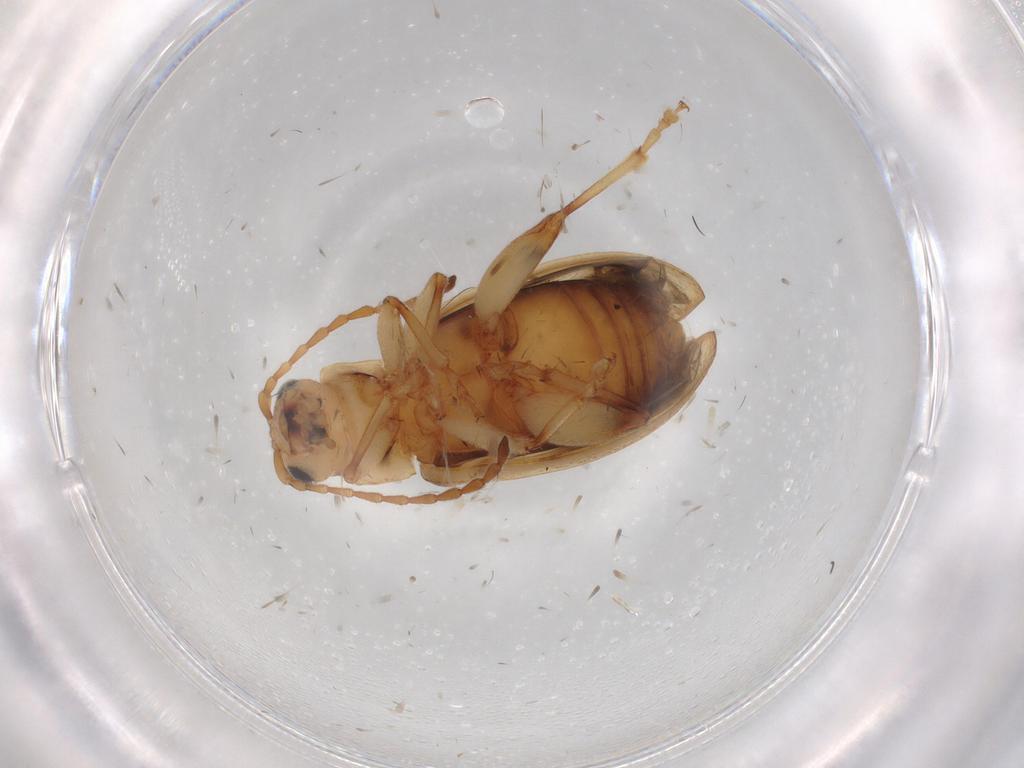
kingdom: Animalia
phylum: Arthropoda
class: Insecta
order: Coleoptera
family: Chrysomelidae
